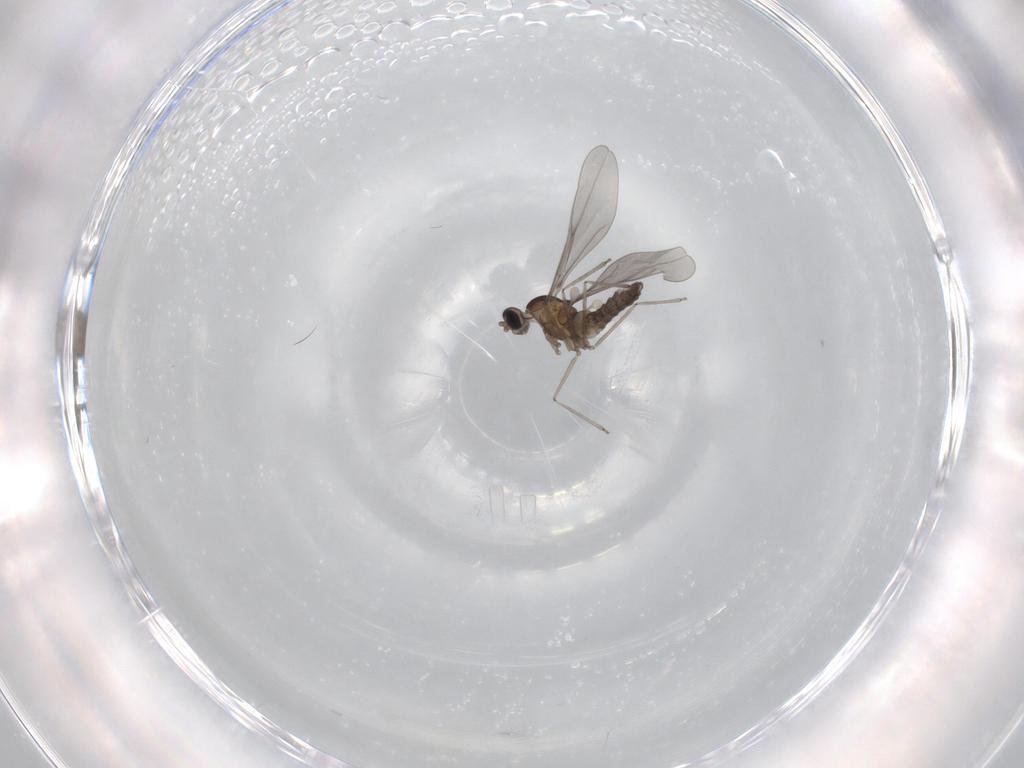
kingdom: Animalia
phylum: Arthropoda
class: Insecta
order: Diptera
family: Cecidomyiidae
